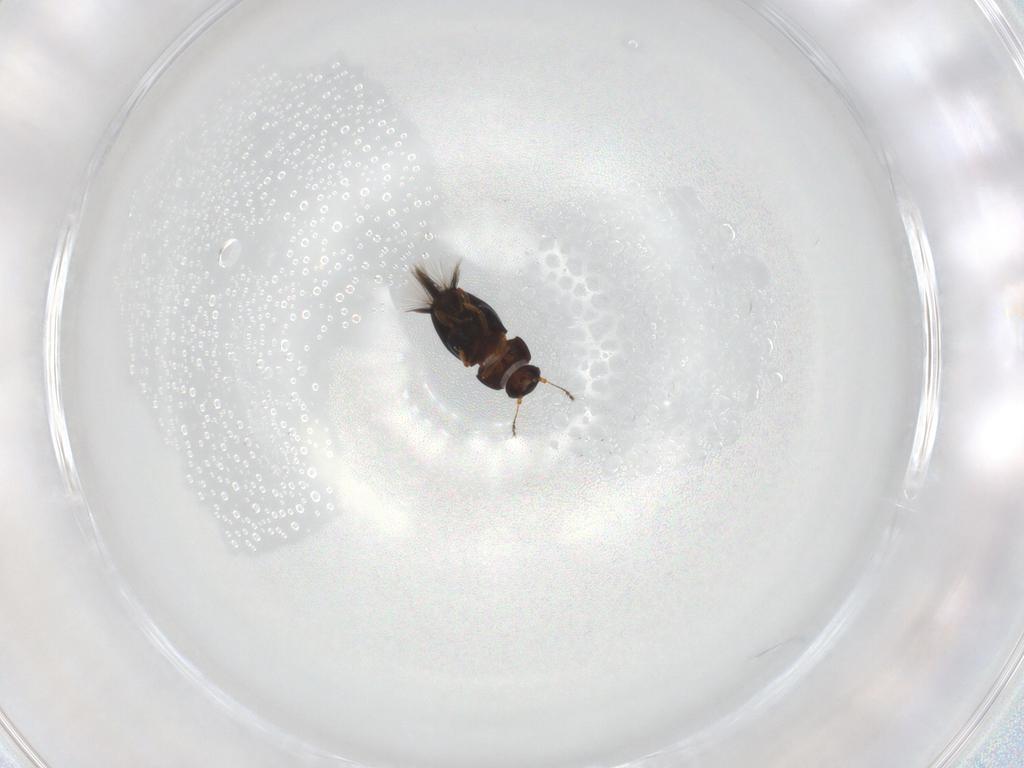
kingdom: Animalia
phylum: Arthropoda
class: Insecta
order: Coleoptera
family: Ptiliidae
